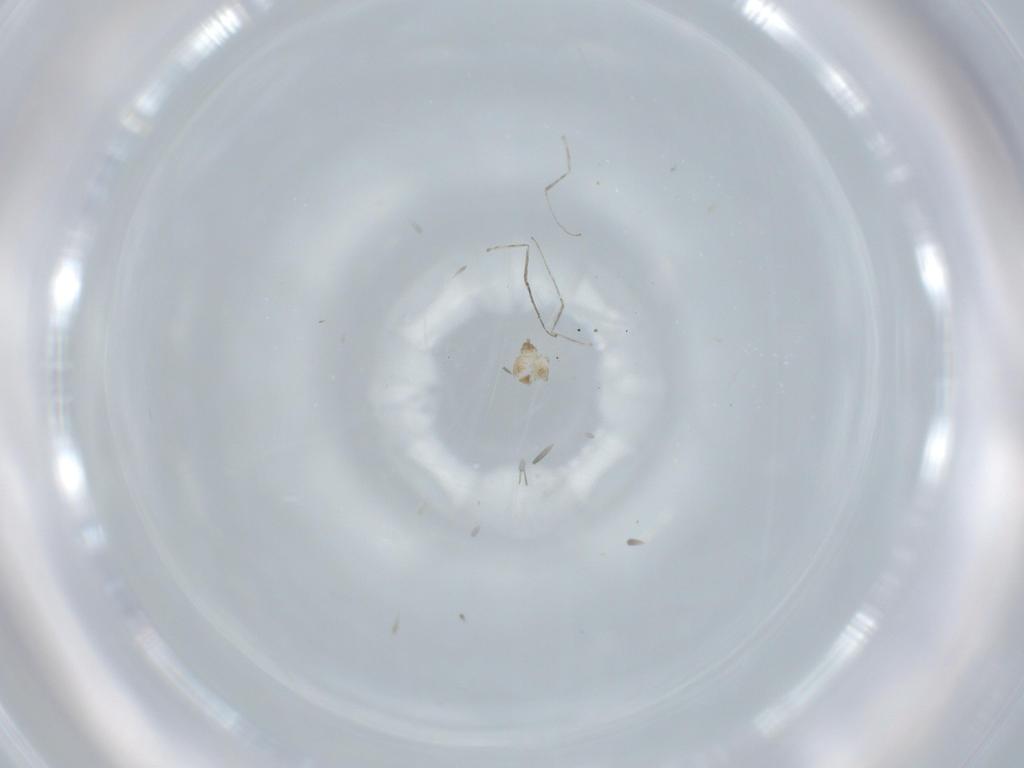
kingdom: Animalia
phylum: Arthropoda
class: Insecta
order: Diptera
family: Cecidomyiidae
